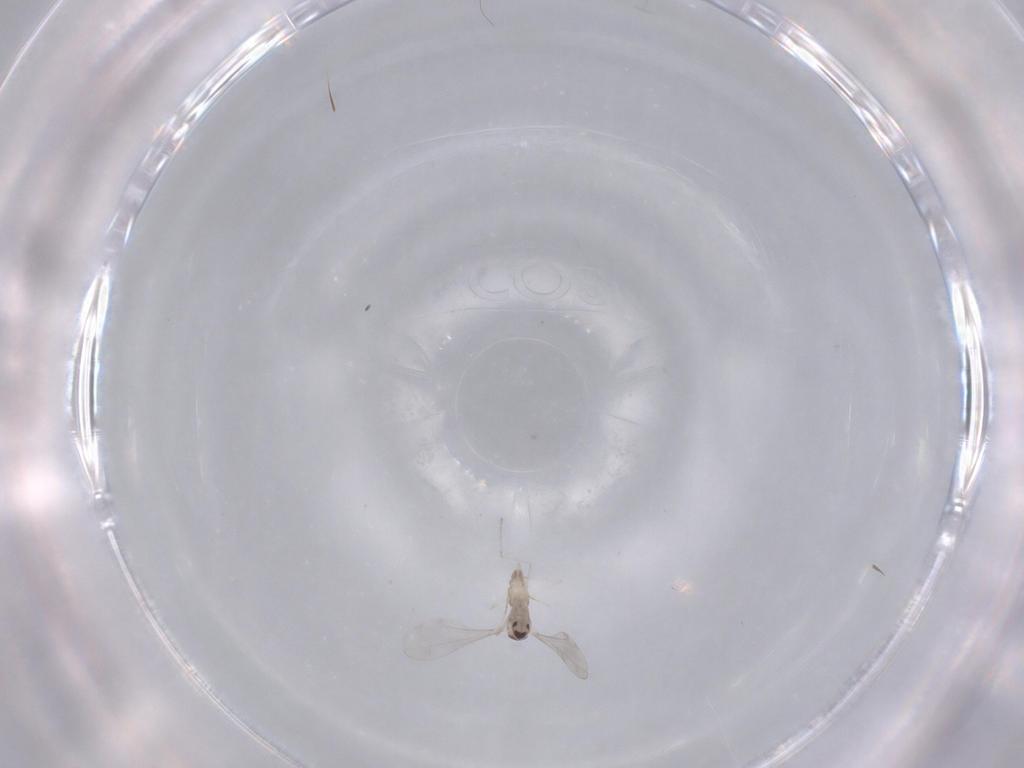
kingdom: Animalia
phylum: Arthropoda
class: Insecta
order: Diptera
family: Cecidomyiidae
